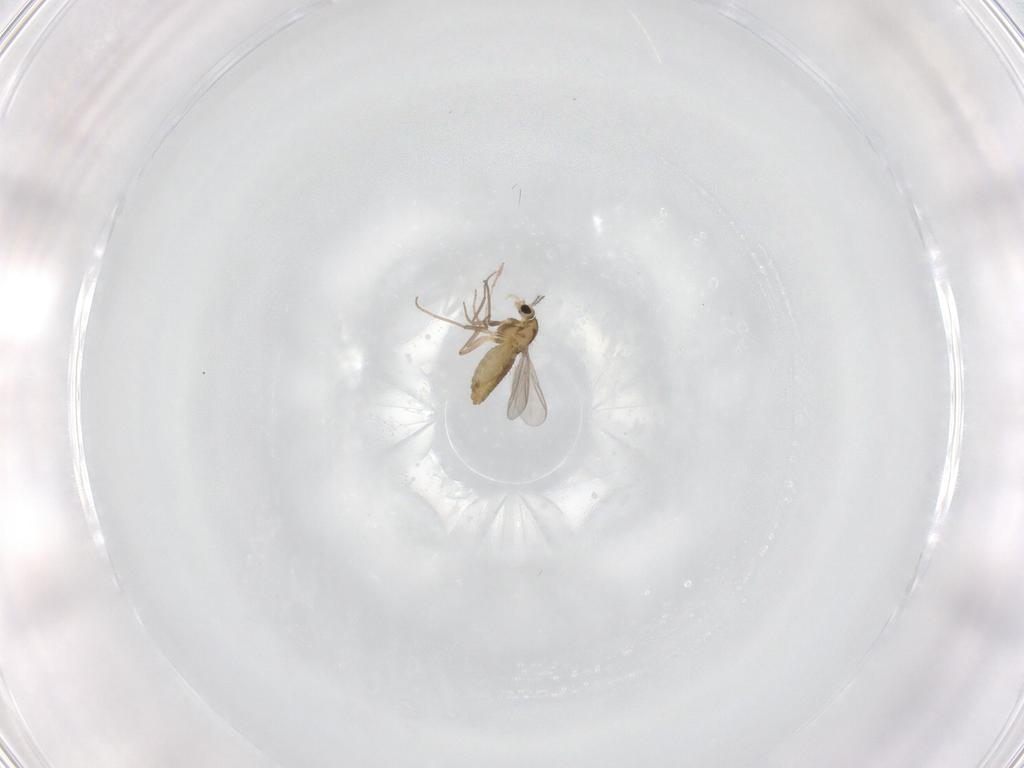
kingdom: Animalia
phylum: Arthropoda
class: Insecta
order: Diptera
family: Chironomidae
